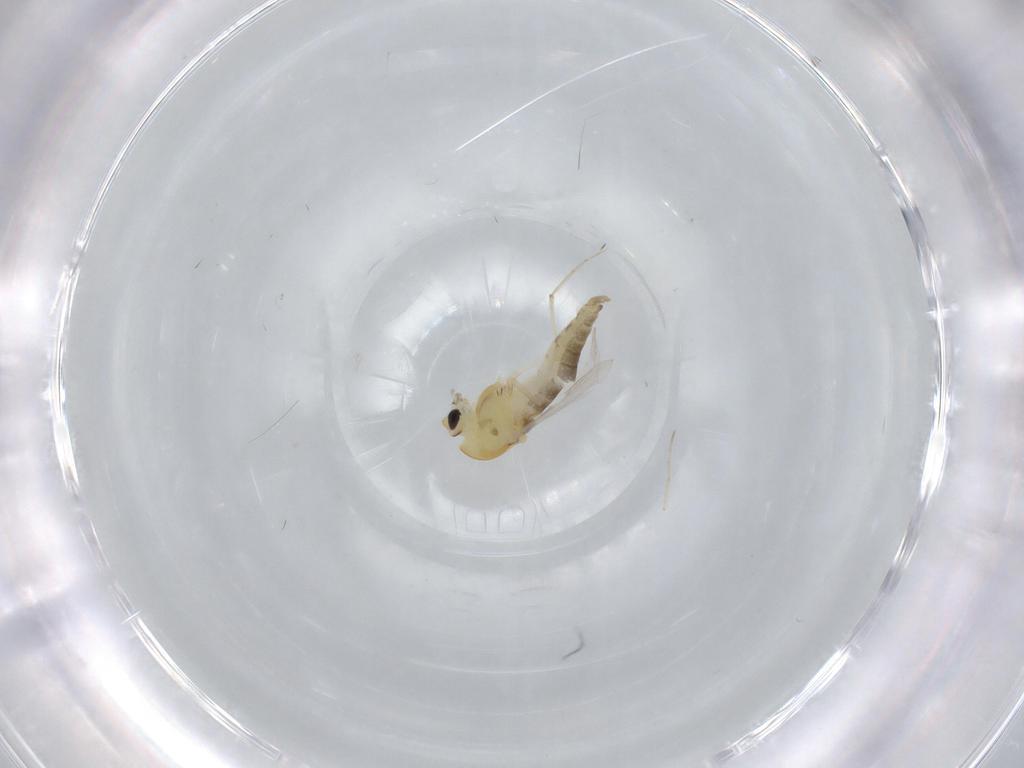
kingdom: Animalia
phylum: Arthropoda
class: Insecta
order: Diptera
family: Chironomidae
